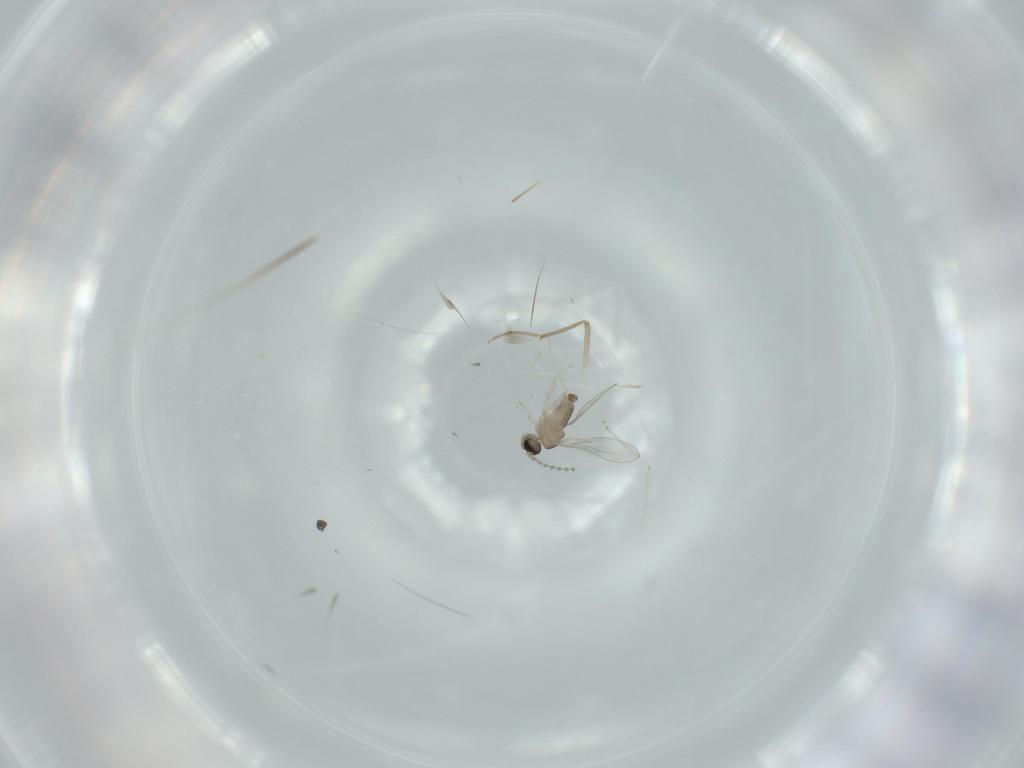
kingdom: Animalia
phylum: Arthropoda
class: Insecta
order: Diptera
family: Cecidomyiidae
